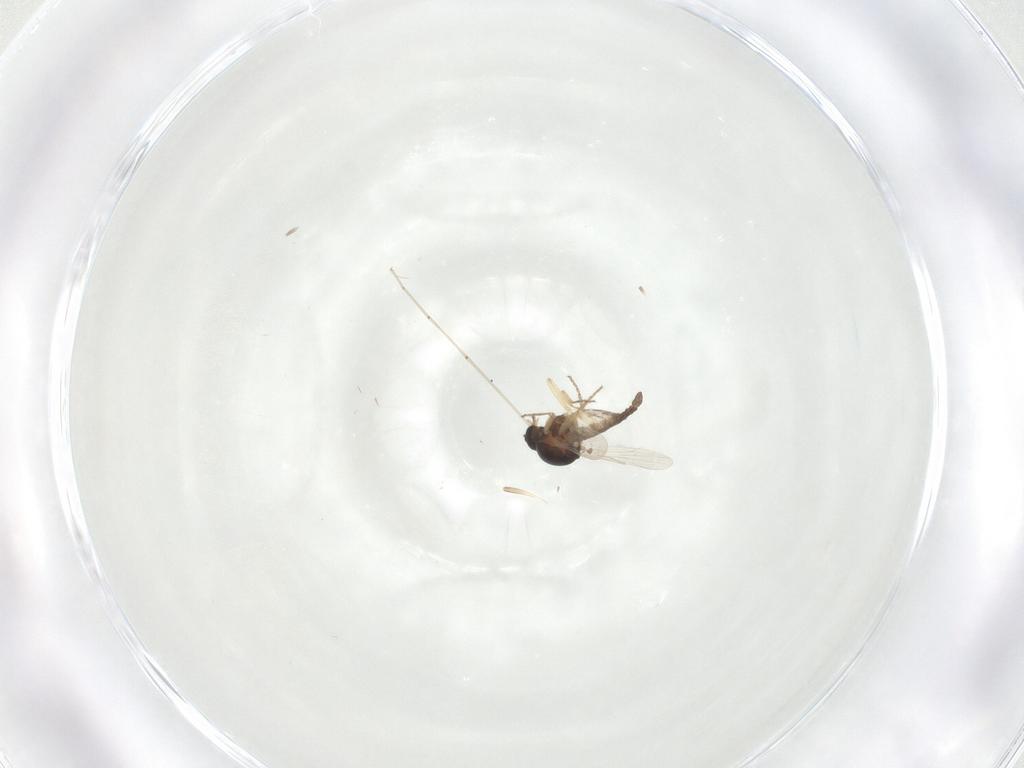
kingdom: Animalia
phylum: Arthropoda
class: Insecta
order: Diptera
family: Ceratopogonidae
